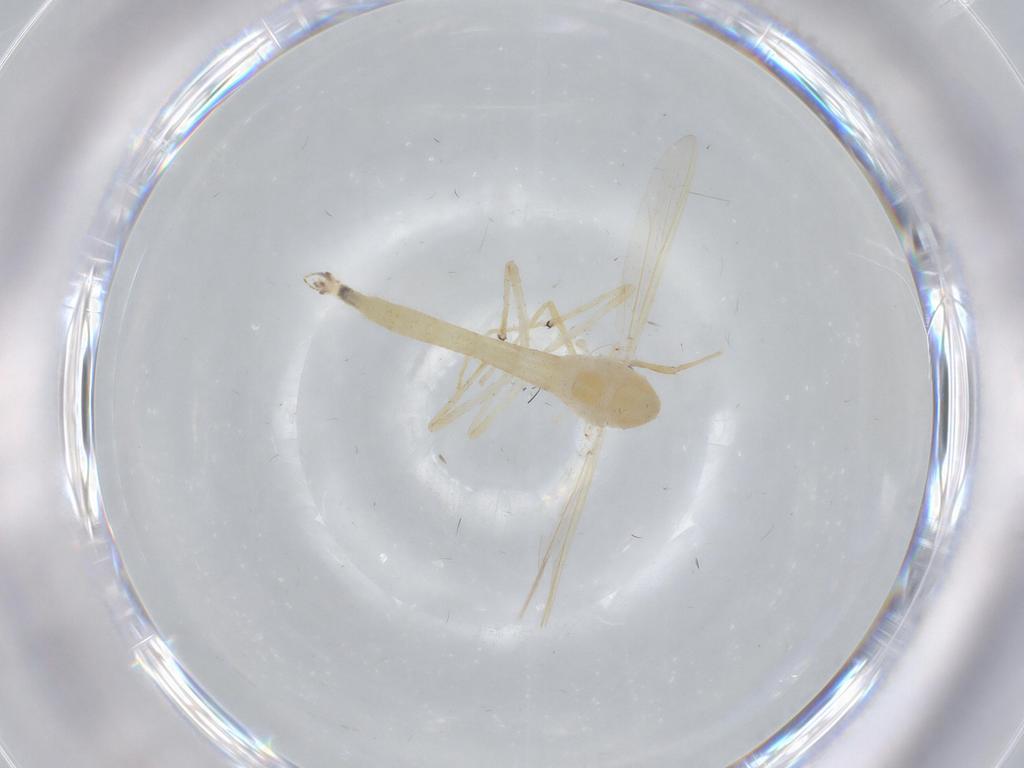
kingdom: Animalia
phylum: Arthropoda
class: Insecta
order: Diptera
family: Chironomidae
